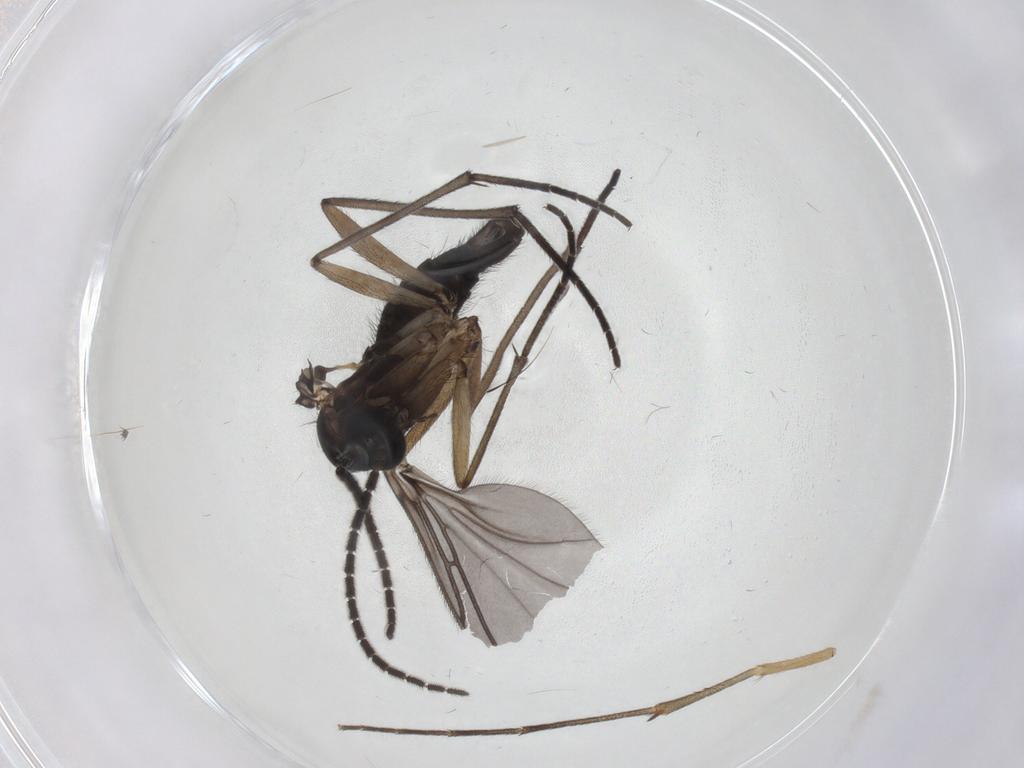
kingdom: Animalia
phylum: Arthropoda
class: Insecta
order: Diptera
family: Sciaridae
